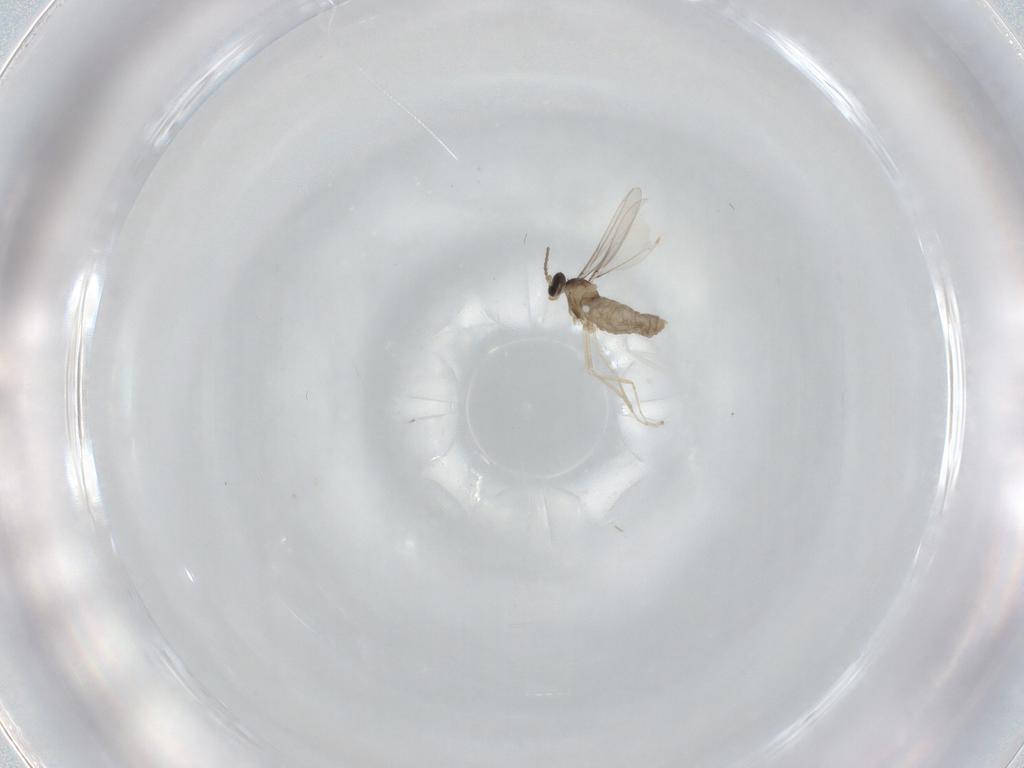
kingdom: Animalia
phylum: Arthropoda
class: Insecta
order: Diptera
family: Cecidomyiidae
